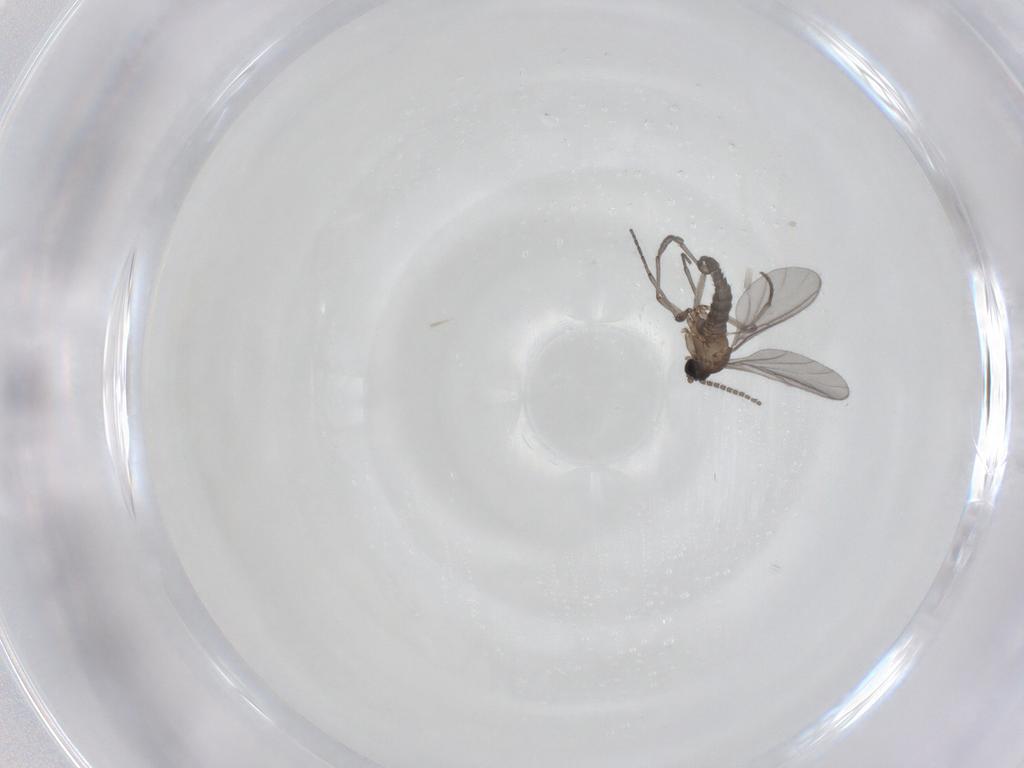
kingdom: Animalia
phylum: Arthropoda
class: Insecta
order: Diptera
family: Sciaridae
